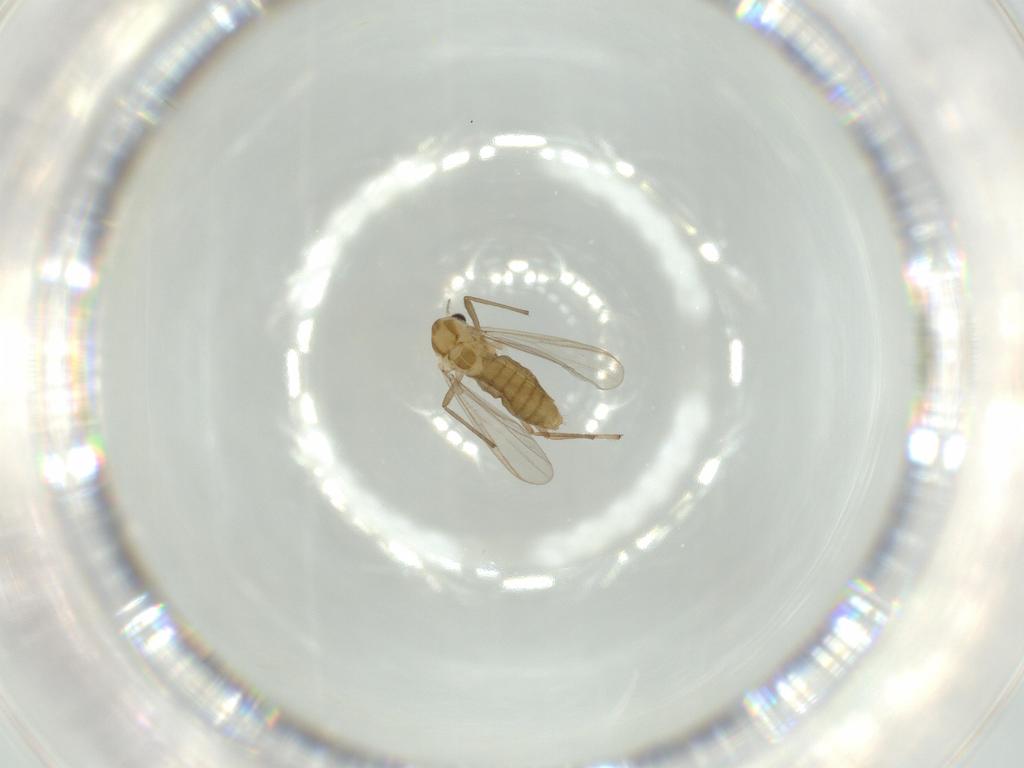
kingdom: Animalia
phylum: Arthropoda
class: Insecta
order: Diptera
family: Chironomidae
